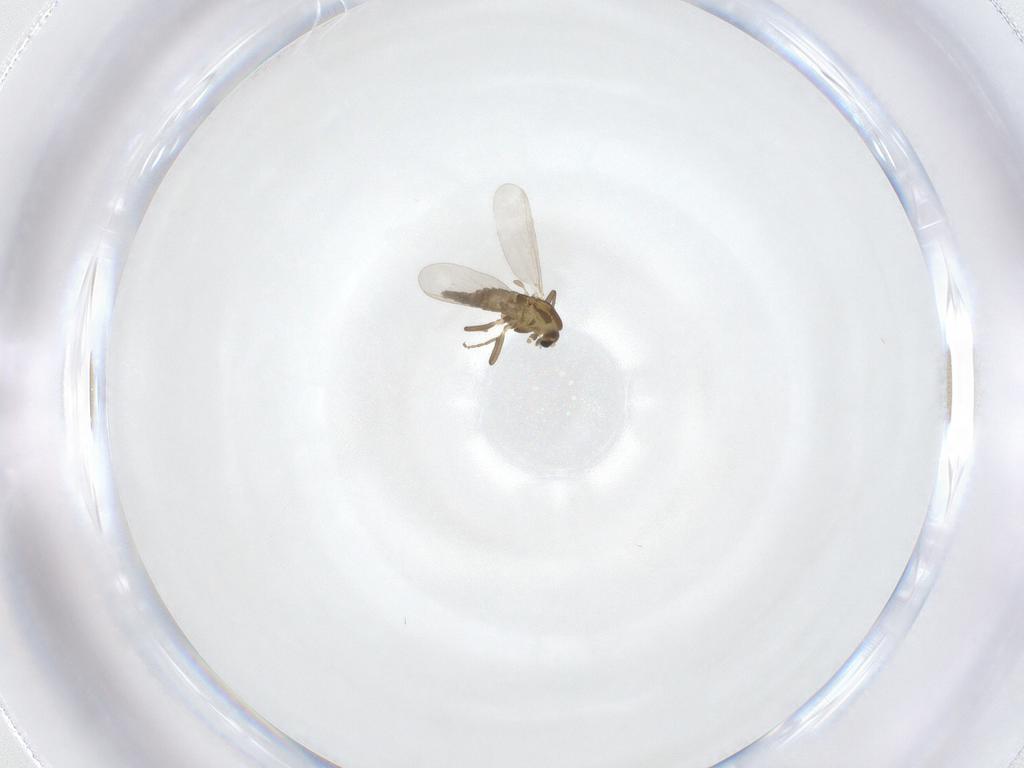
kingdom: Animalia
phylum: Arthropoda
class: Insecta
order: Diptera
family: Chironomidae
